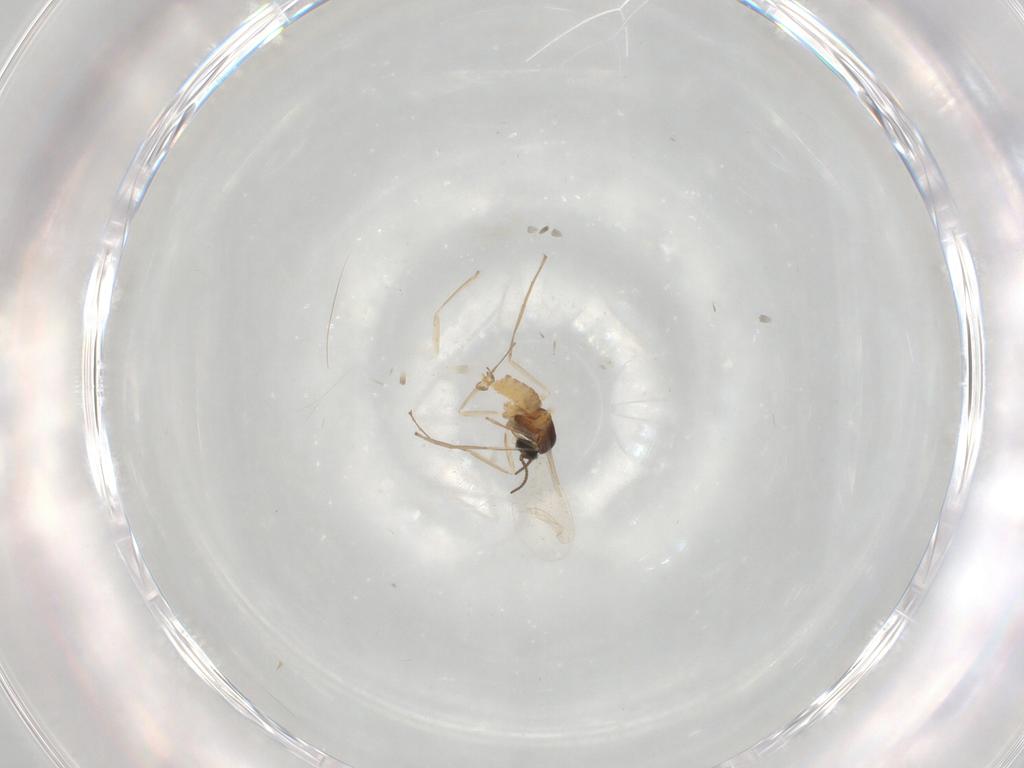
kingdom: Animalia
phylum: Arthropoda
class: Insecta
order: Diptera
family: Cecidomyiidae
